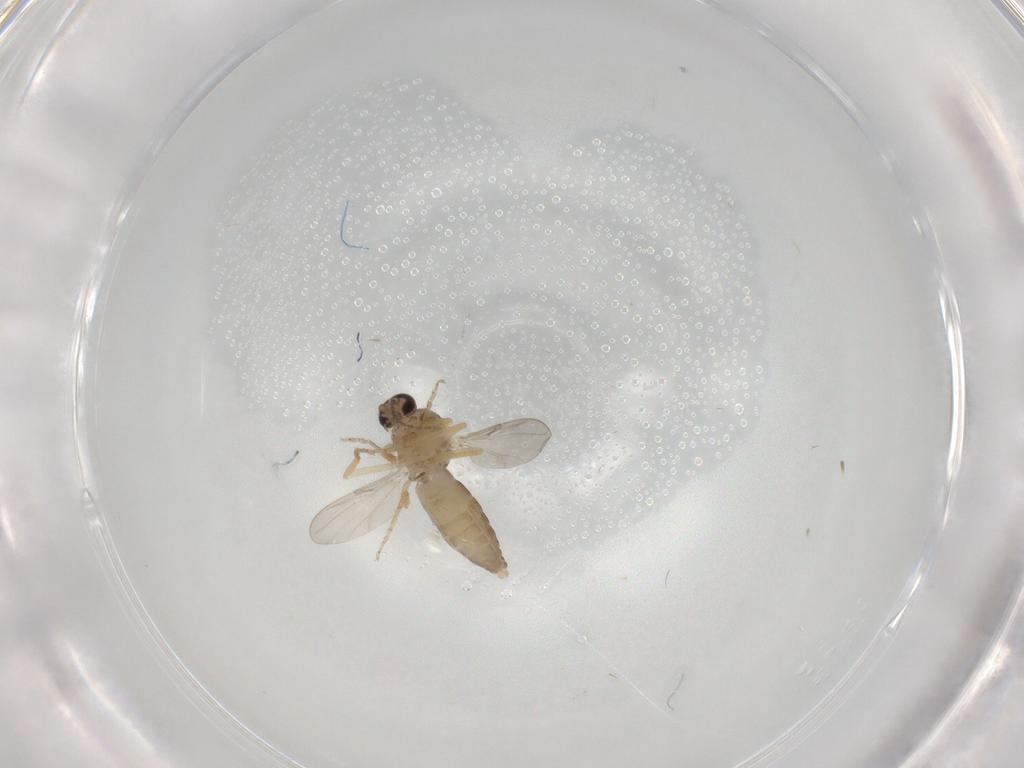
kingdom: Animalia
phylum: Arthropoda
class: Insecta
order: Diptera
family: Ceratopogonidae
